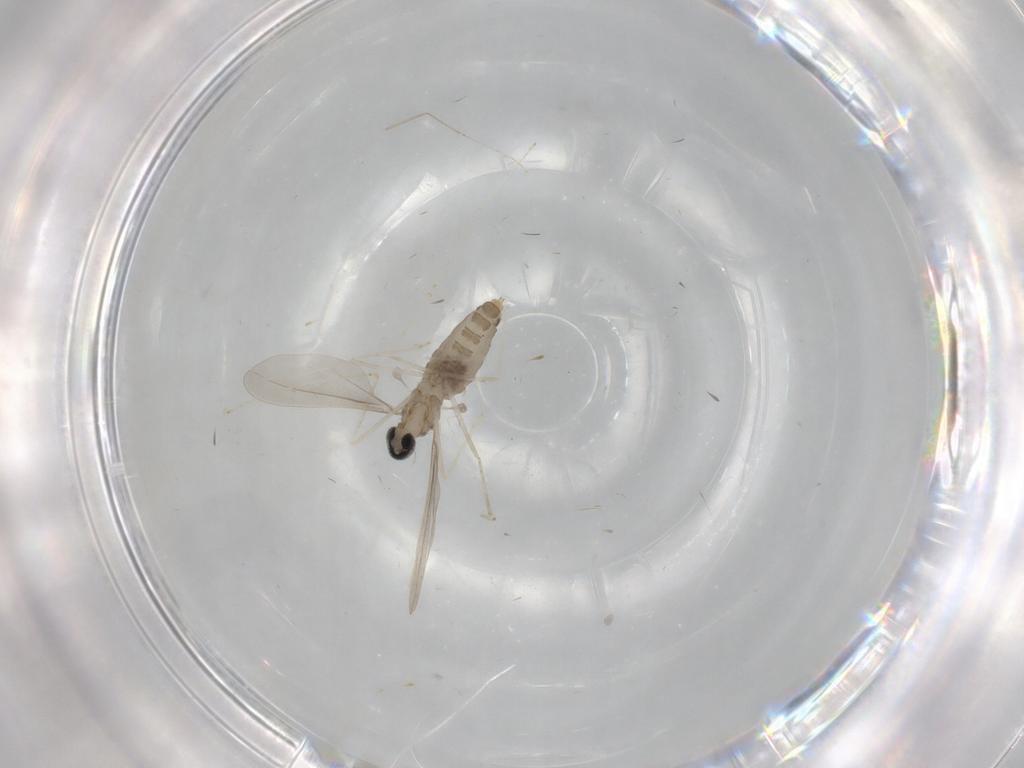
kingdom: Animalia
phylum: Arthropoda
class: Insecta
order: Diptera
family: Cecidomyiidae
